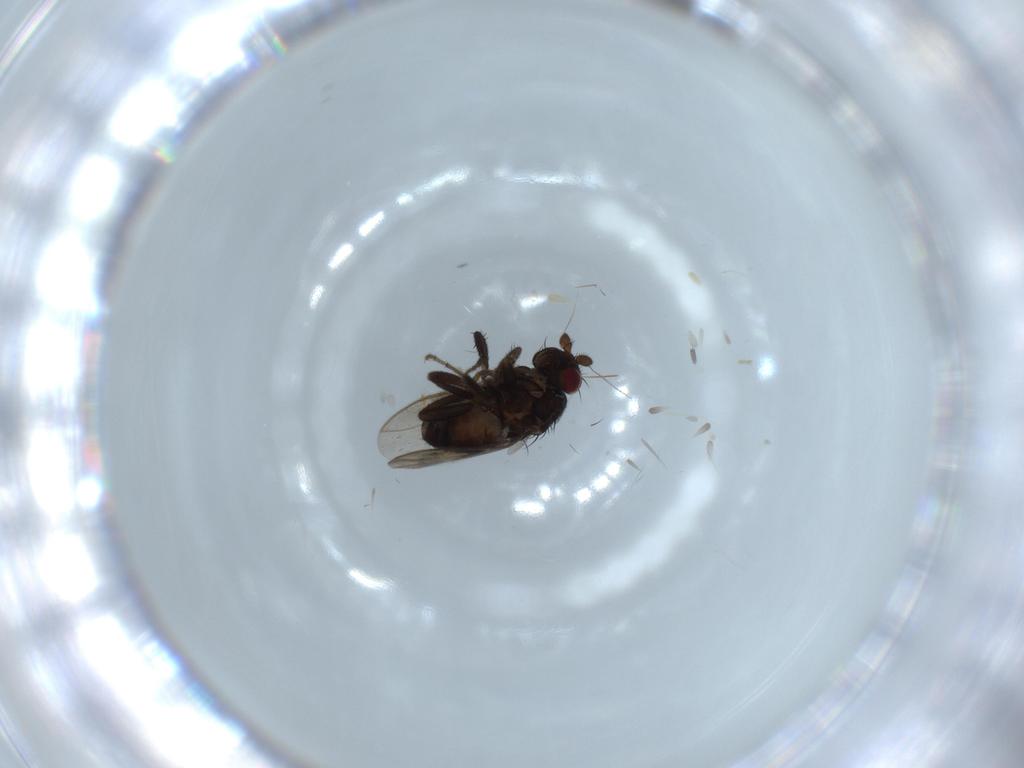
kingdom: Animalia
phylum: Arthropoda
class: Insecta
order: Diptera
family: Sphaeroceridae
